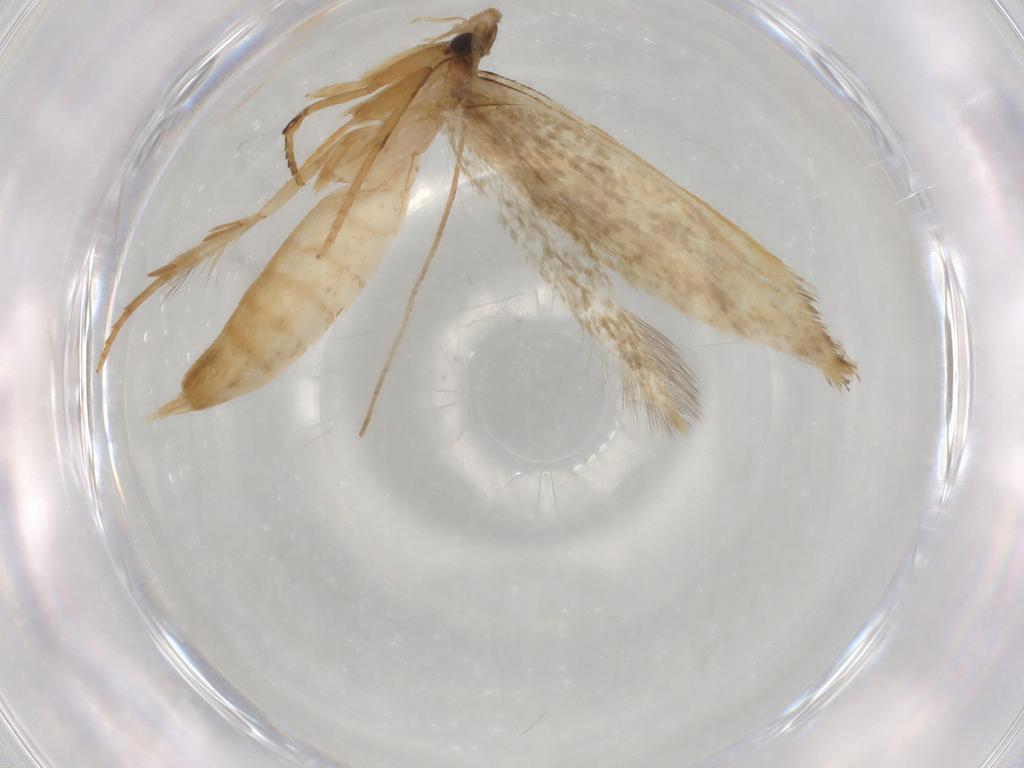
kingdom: Animalia
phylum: Arthropoda
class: Insecta
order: Lepidoptera
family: Tineidae
